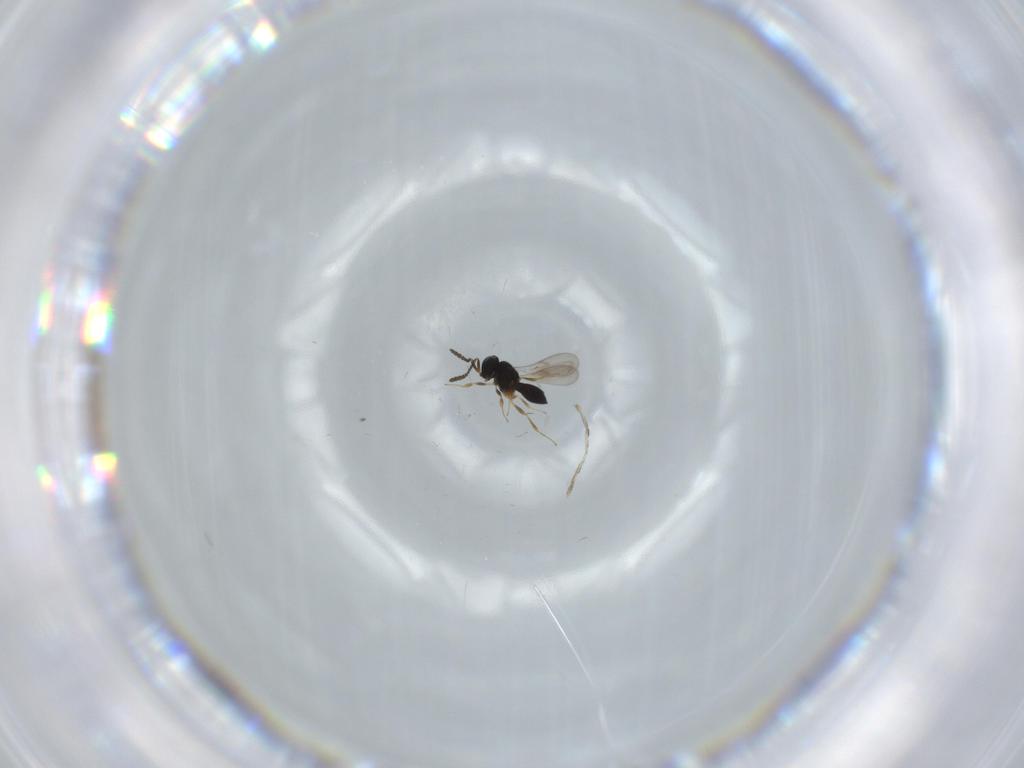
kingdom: Animalia
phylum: Arthropoda
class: Insecta
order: Hymenoptera
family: Scelionidae
